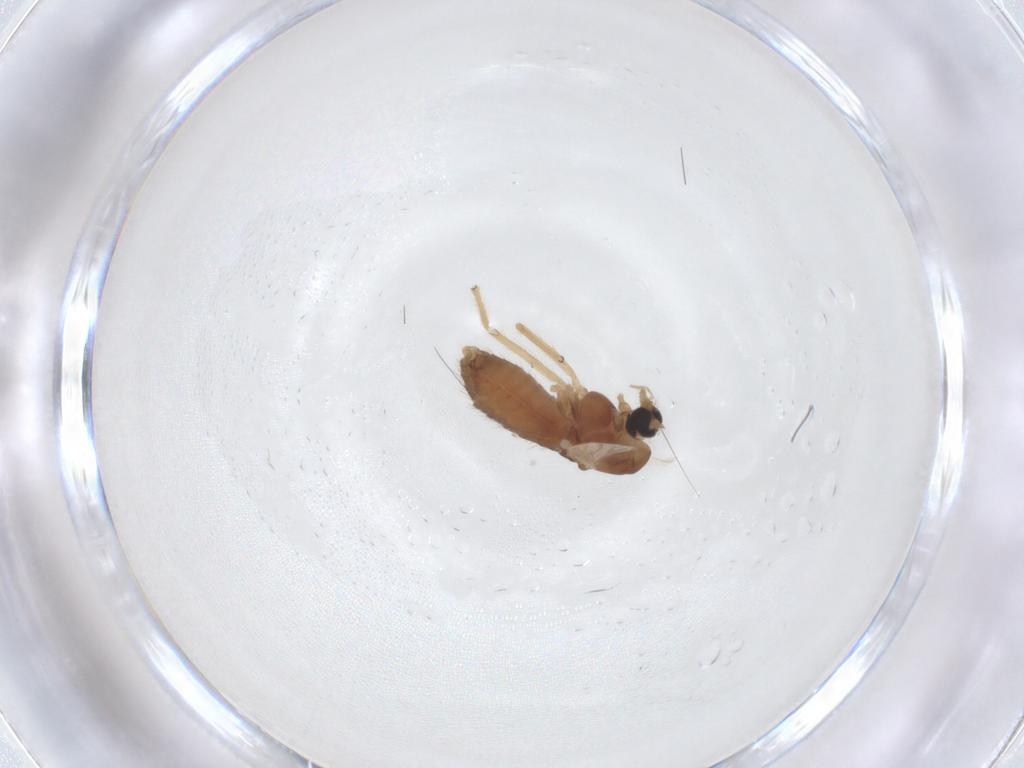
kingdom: Animalia
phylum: Arthropoda
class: Insecta
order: Diptera
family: Chironomidae
